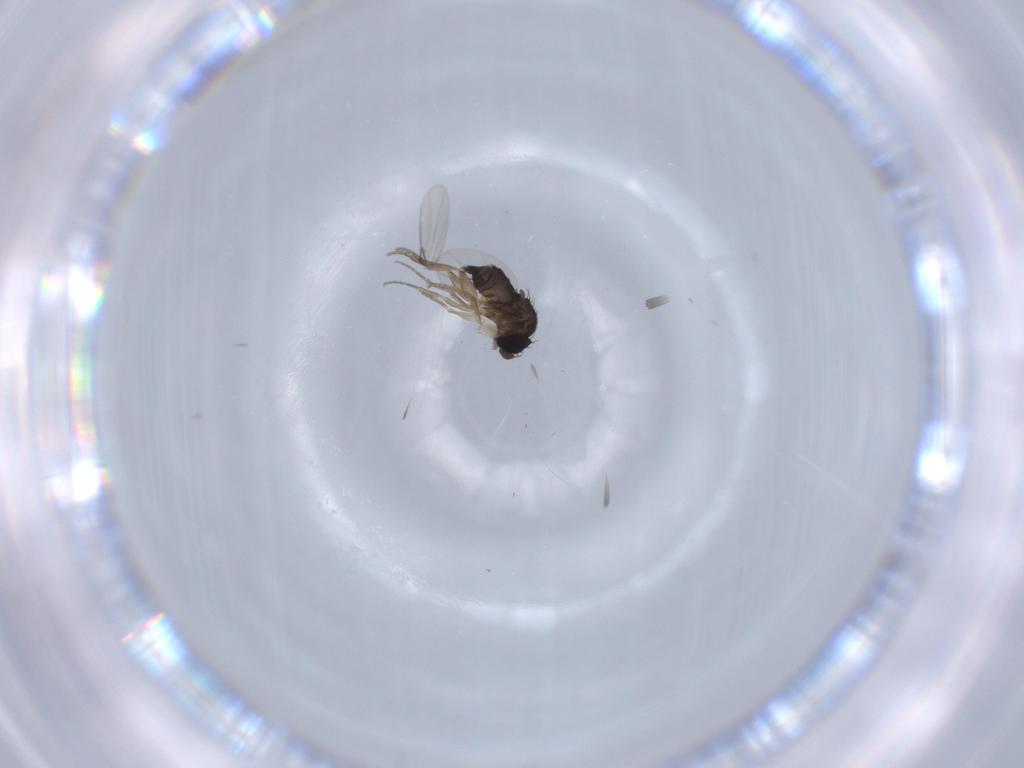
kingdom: Animalia
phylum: Arthropoda
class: Insecta
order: Diptera
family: Phoridae
